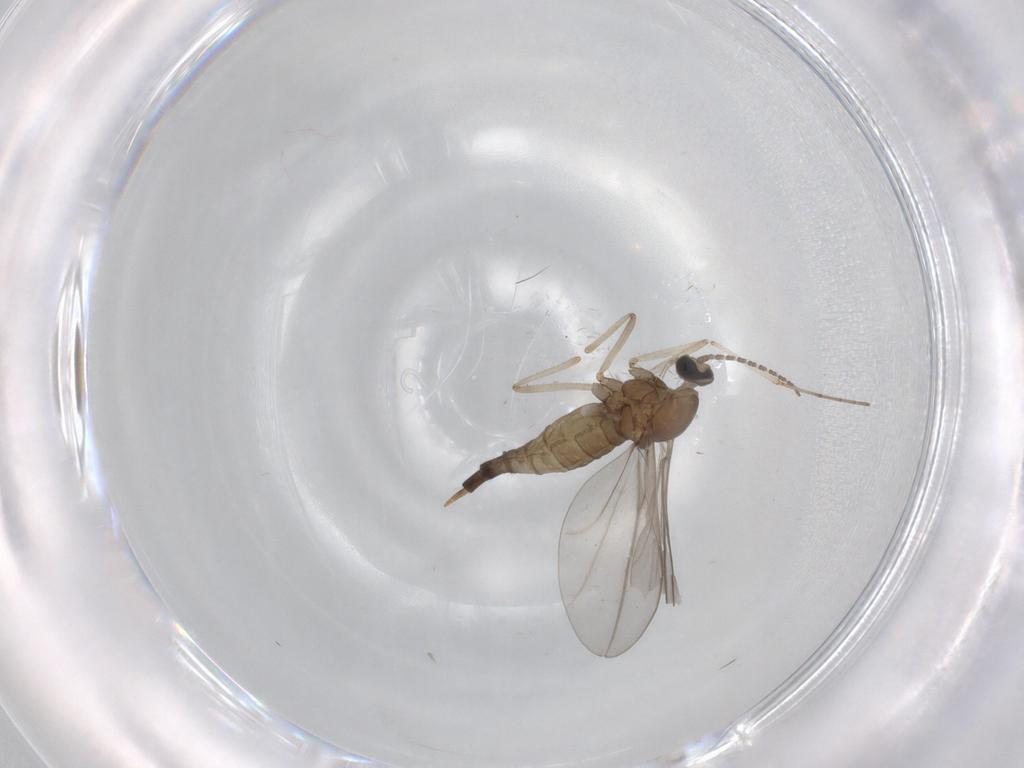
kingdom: Animalia
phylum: Arthropoda
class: Insecta
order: Diptera
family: Cecidomyiidae
